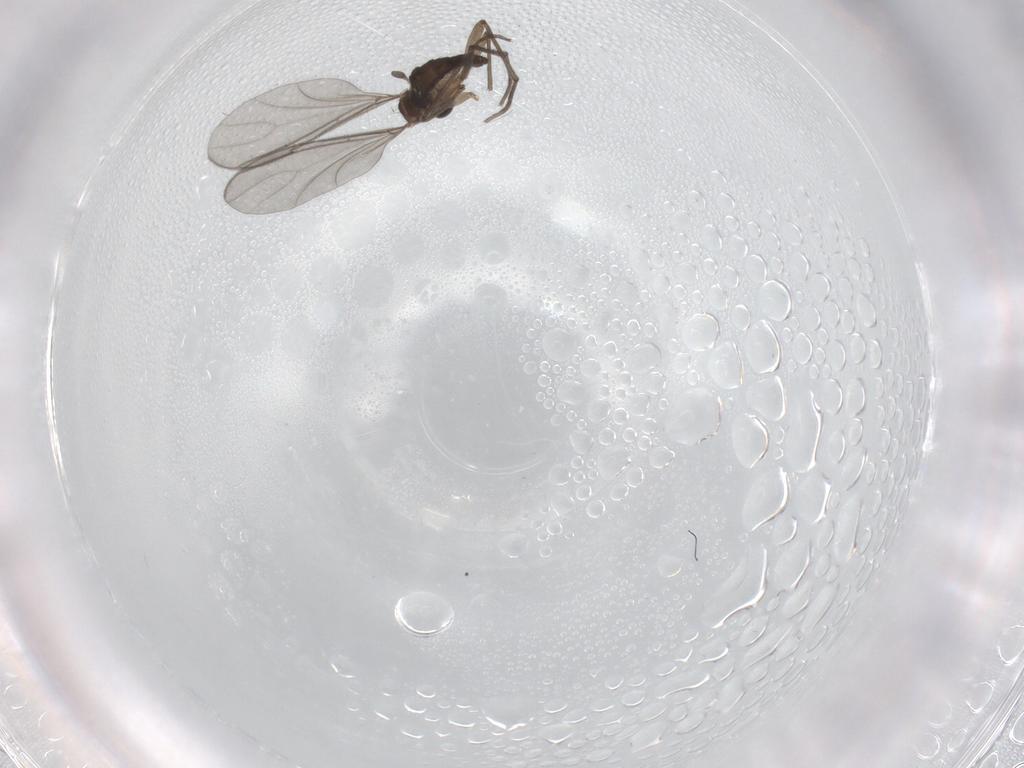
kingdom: Animalia
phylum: Arthropoda
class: Insecta
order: Diptera
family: Sciaridae
